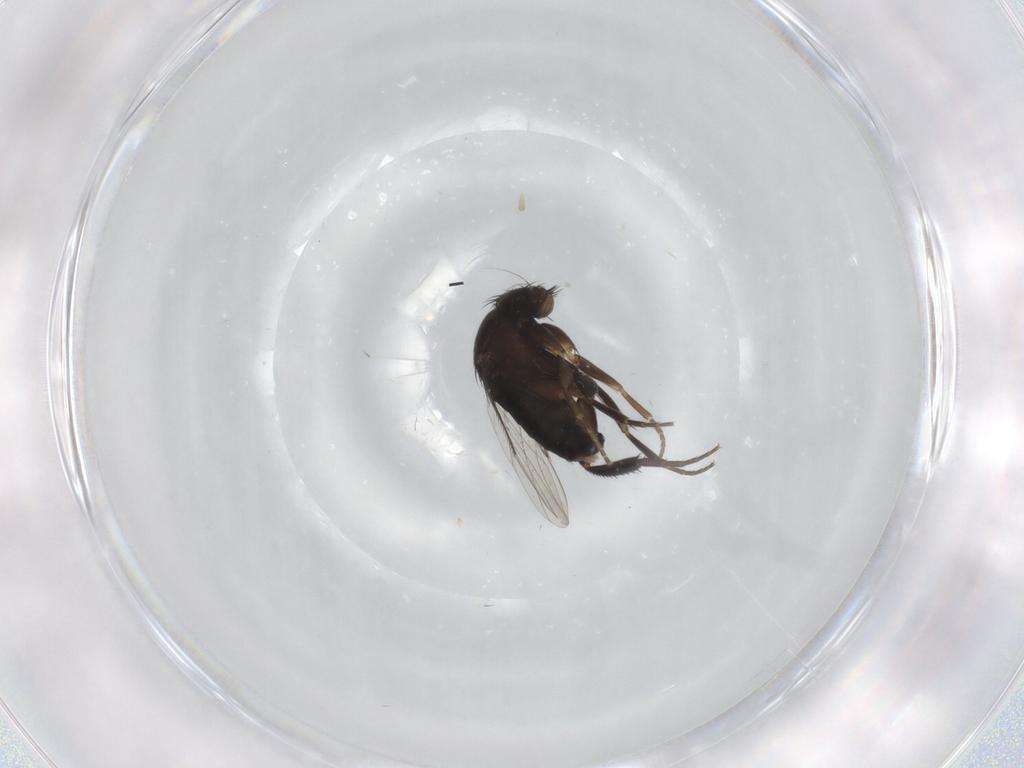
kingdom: Animalia
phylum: Arthropoda
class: Insecta
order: Diptera
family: Phoridae
